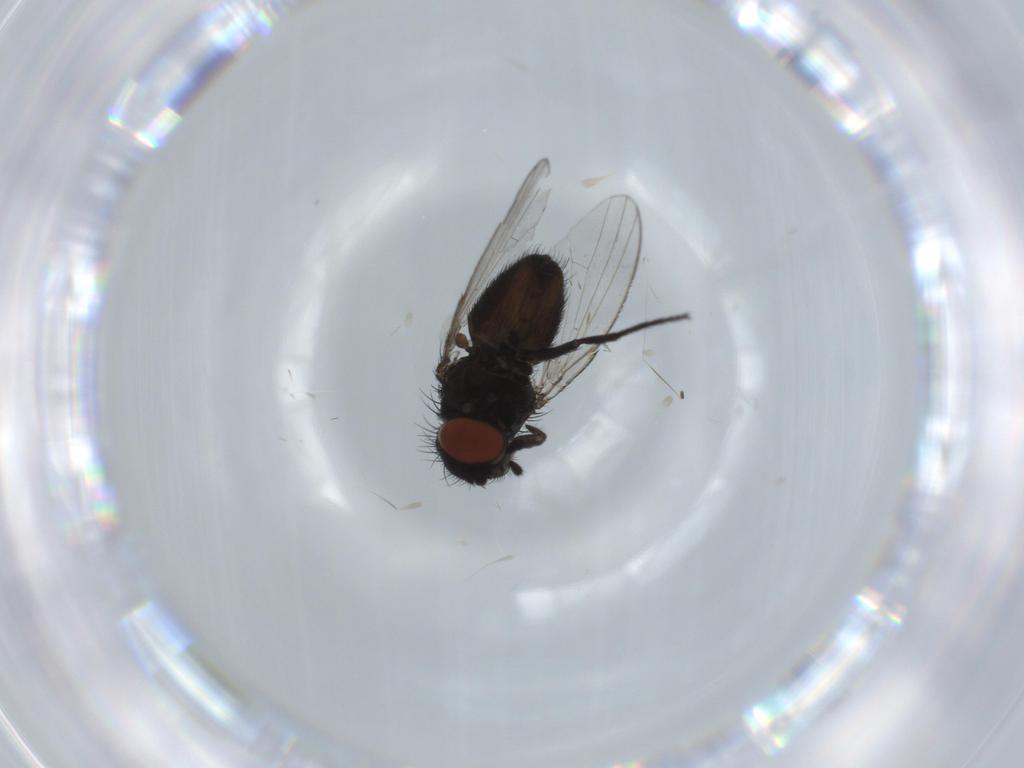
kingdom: Animalia
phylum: Arthropoda
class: Insecta
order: Diptera
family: Milichiidae
